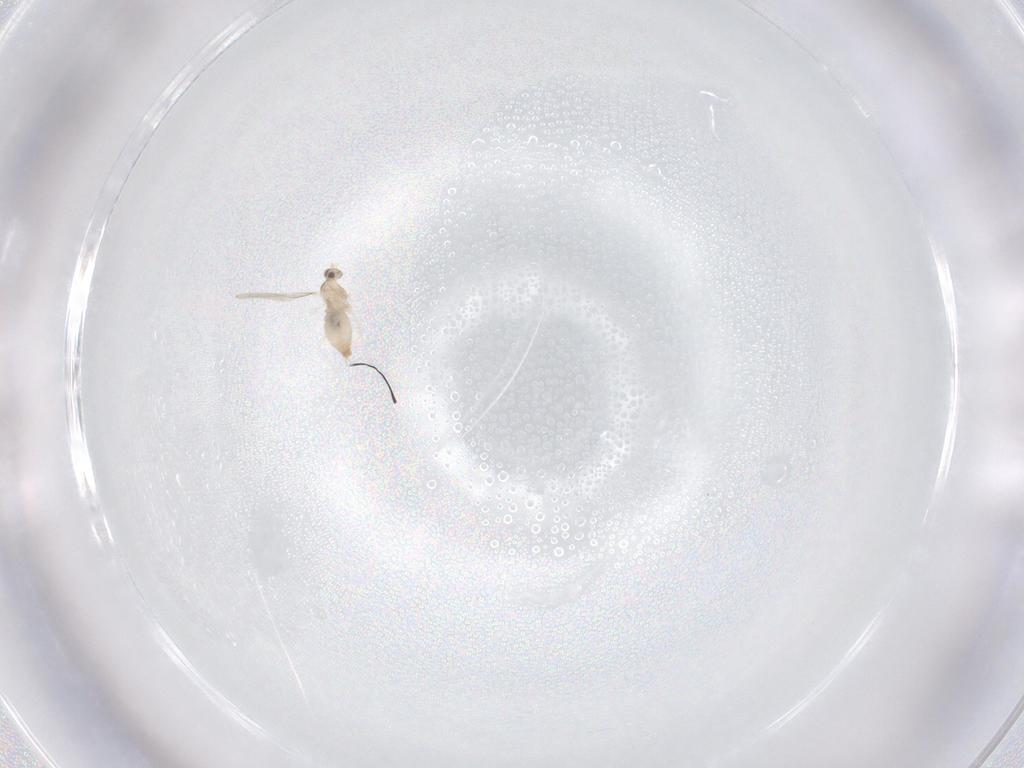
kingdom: Animalia
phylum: Arthropoda
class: Insecta
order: Diptera
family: Cecidomyiidae
